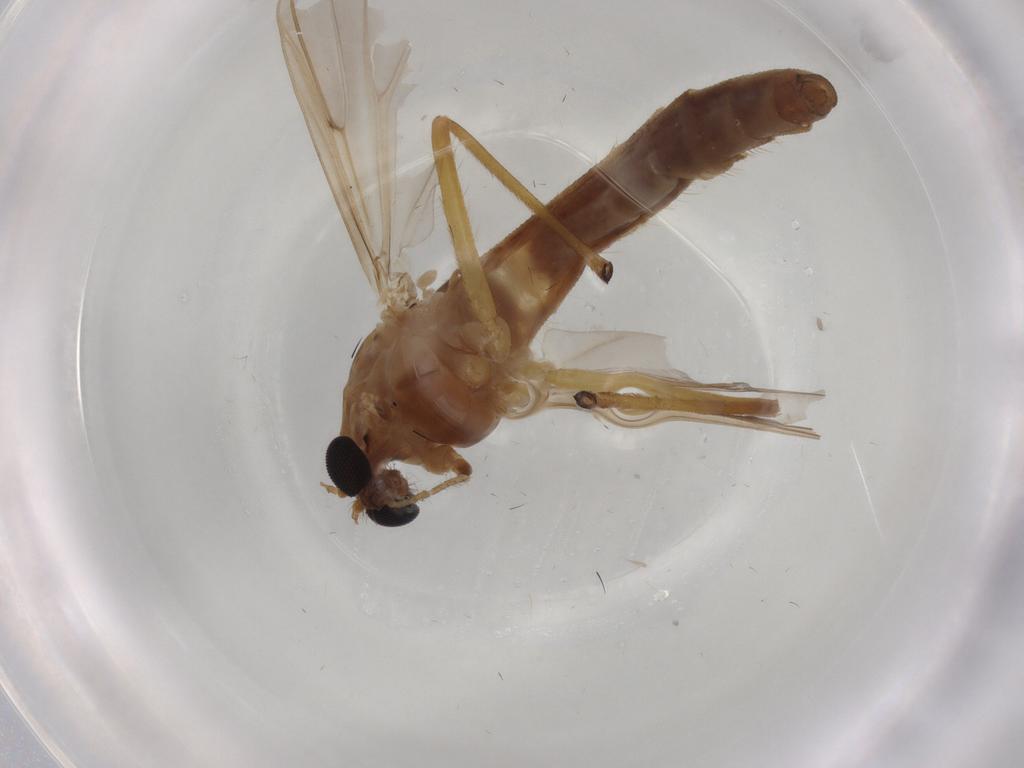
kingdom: Animalia
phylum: Arthropoda
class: Insecta
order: Diptera
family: Chironomidae
